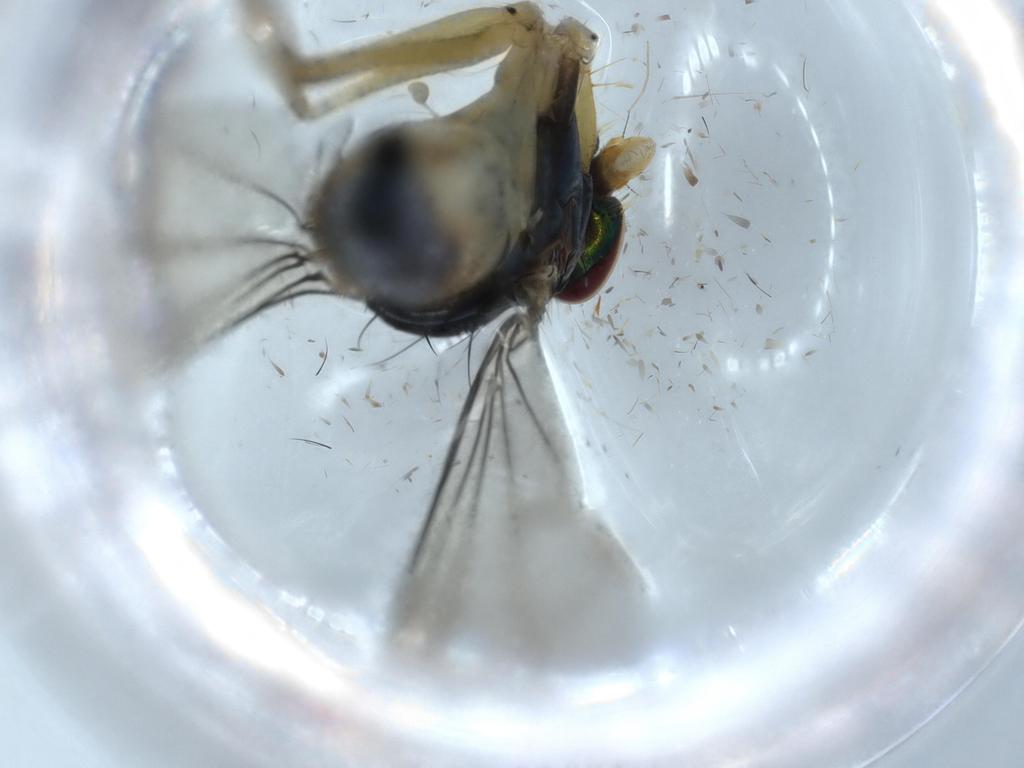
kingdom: Animalia
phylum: Arthropoda
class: Insecta
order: Diptera
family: Dolichopodidae
